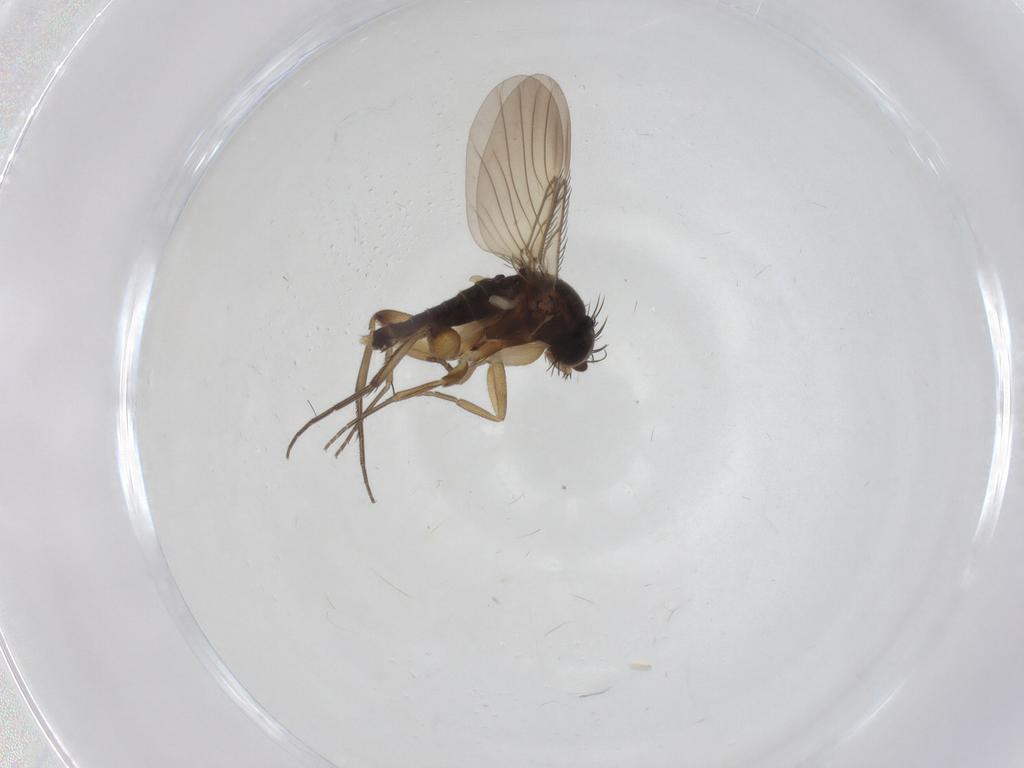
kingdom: Animalia
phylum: Arthropoda
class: Insecta
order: Diptera
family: Phoridae
